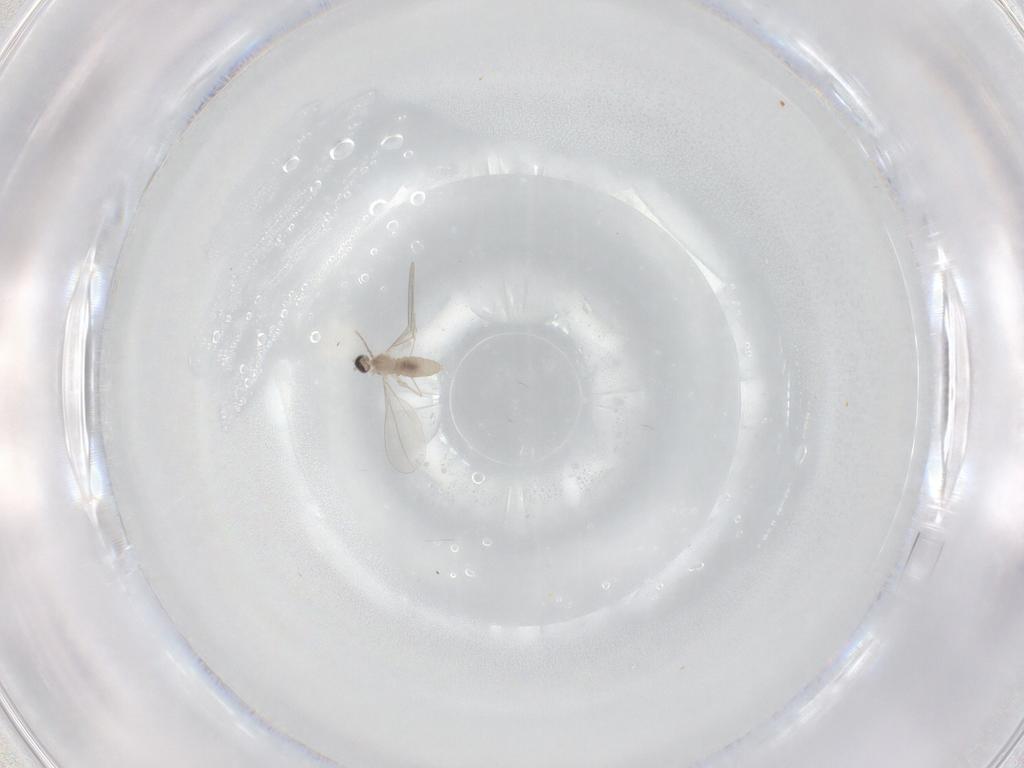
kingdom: Animalia
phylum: Arthropoda
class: Insecta
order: Diptera
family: Cecidomyiidae
